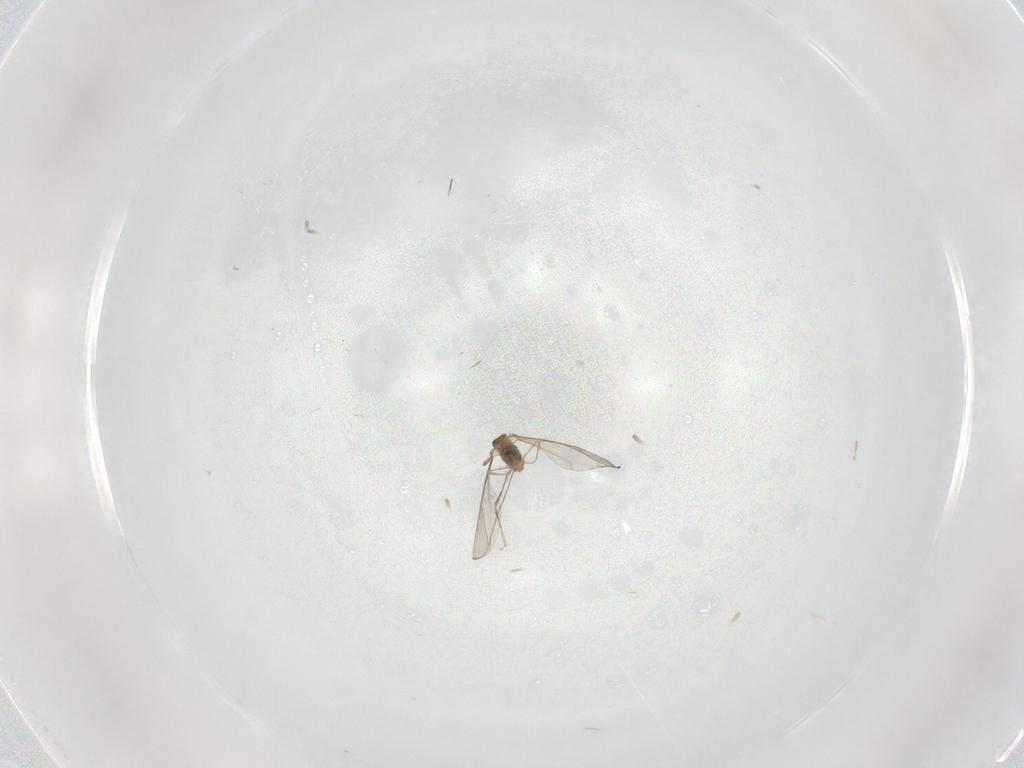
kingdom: Animalia
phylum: Arthropoda
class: Insecta
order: Diptera
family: Cecidomyiidae
